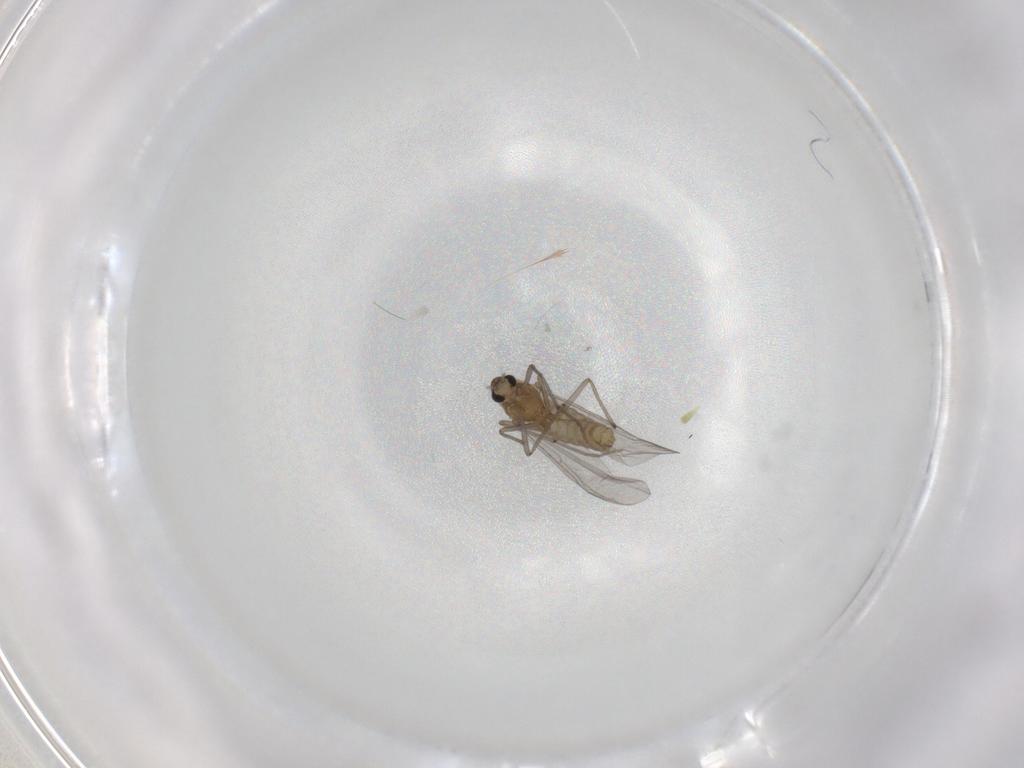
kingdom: Animalia
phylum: Arthropoda
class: Insecta
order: Diptera
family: Chironomidae
